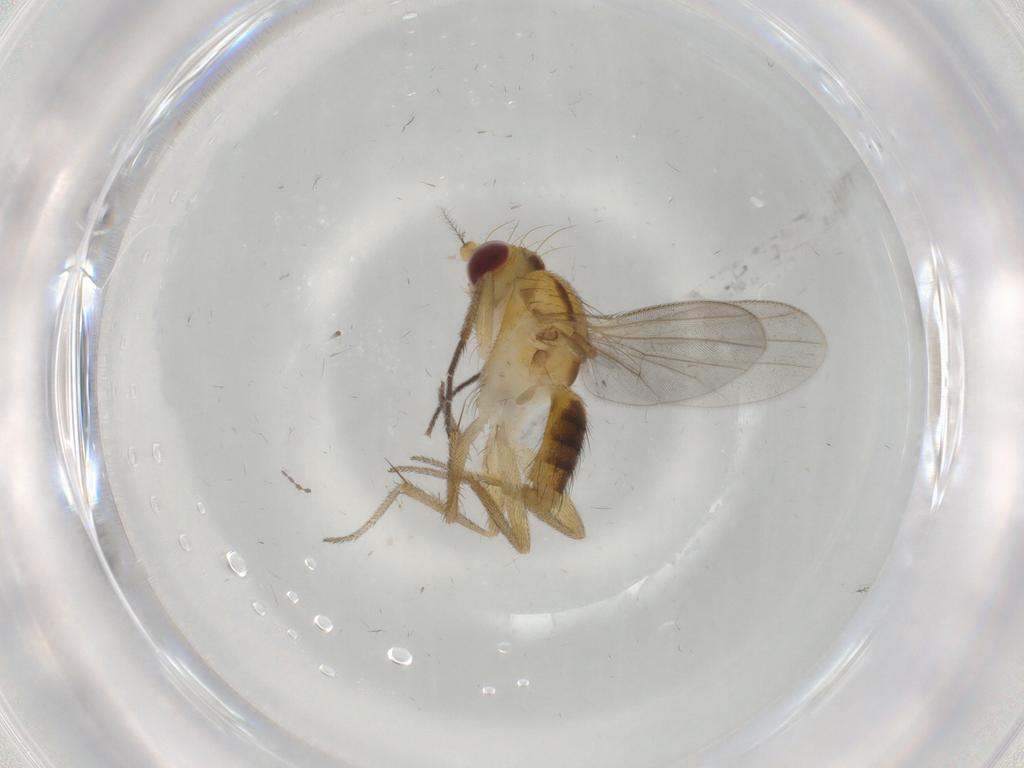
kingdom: Animalia
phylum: Arthropoda
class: Insecta
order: Diptera
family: Clusiidae
